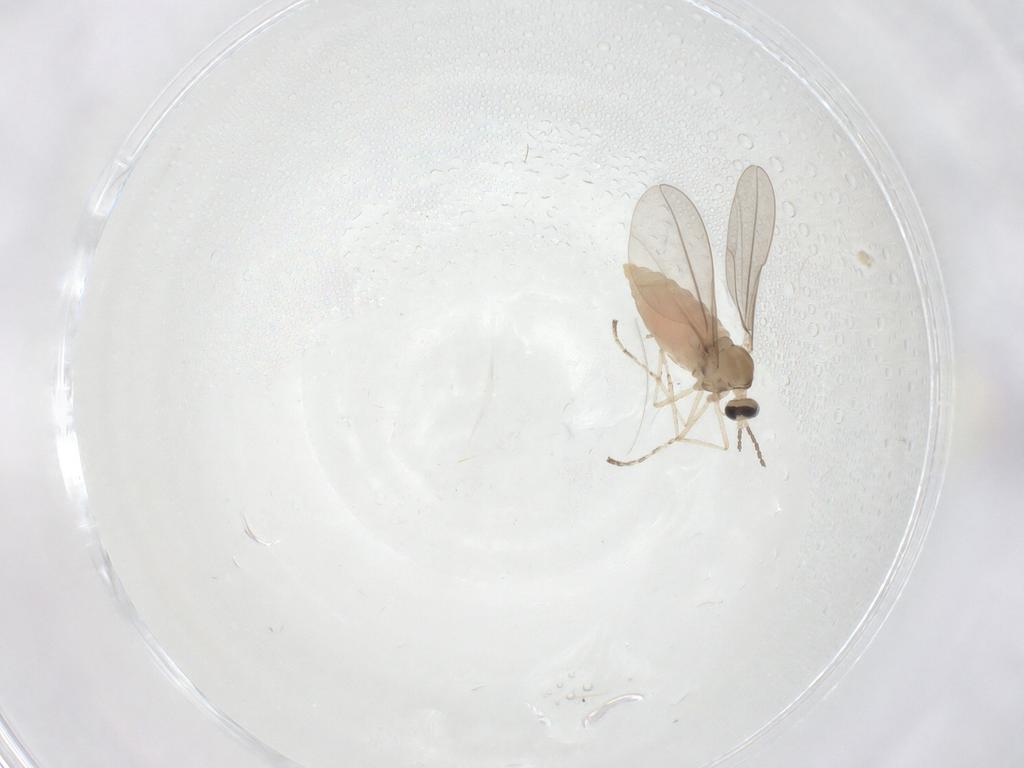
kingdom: Animalia
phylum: Arthropoda
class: Insecta
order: Diptera
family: Cecidomyiidae
